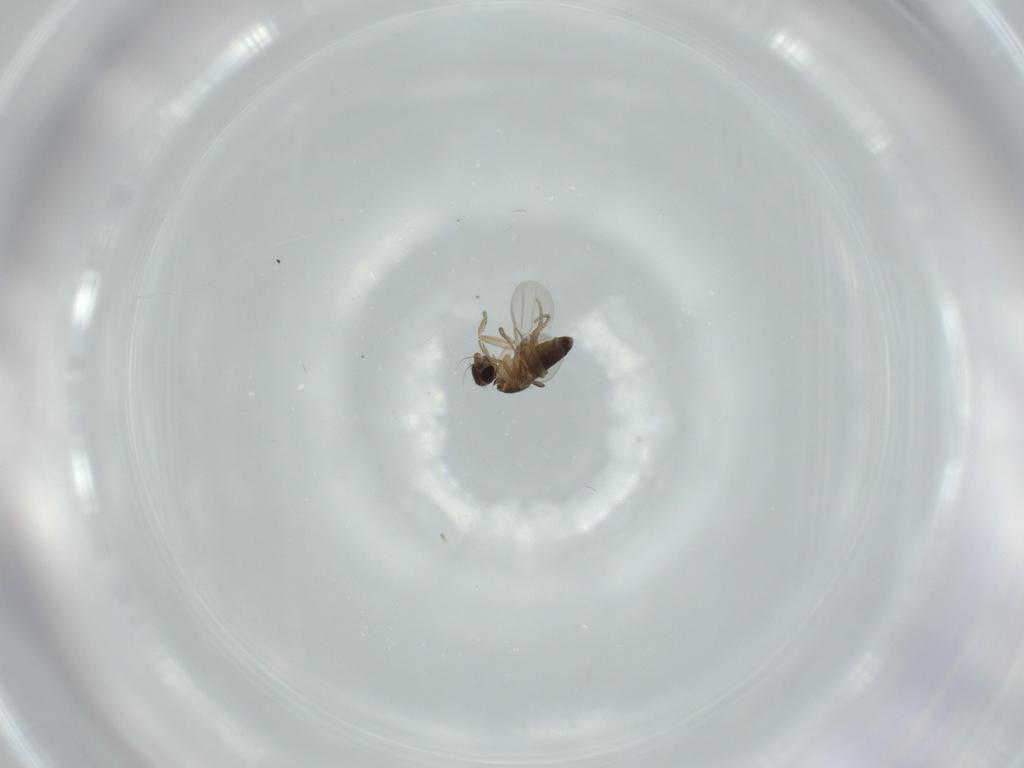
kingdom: Animalia
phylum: Arthropoda
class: Insecta
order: Diptera
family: Phoridae
